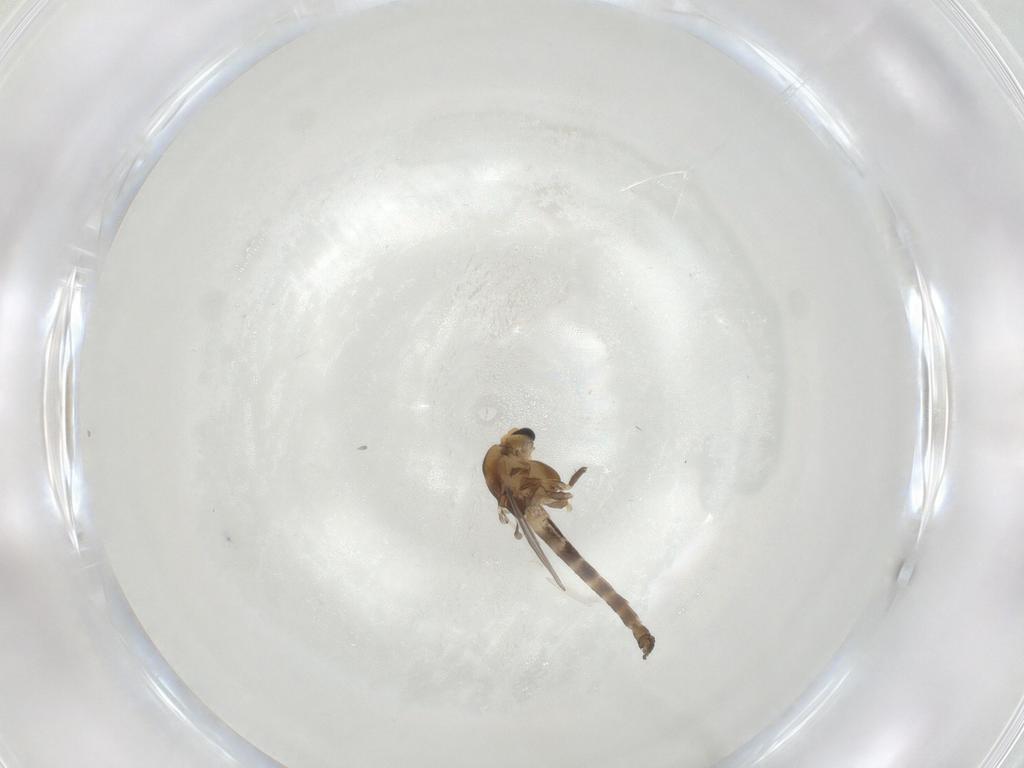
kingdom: Animalia
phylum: Arthropoda
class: Insecta
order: Diptera
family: Chironomidae
